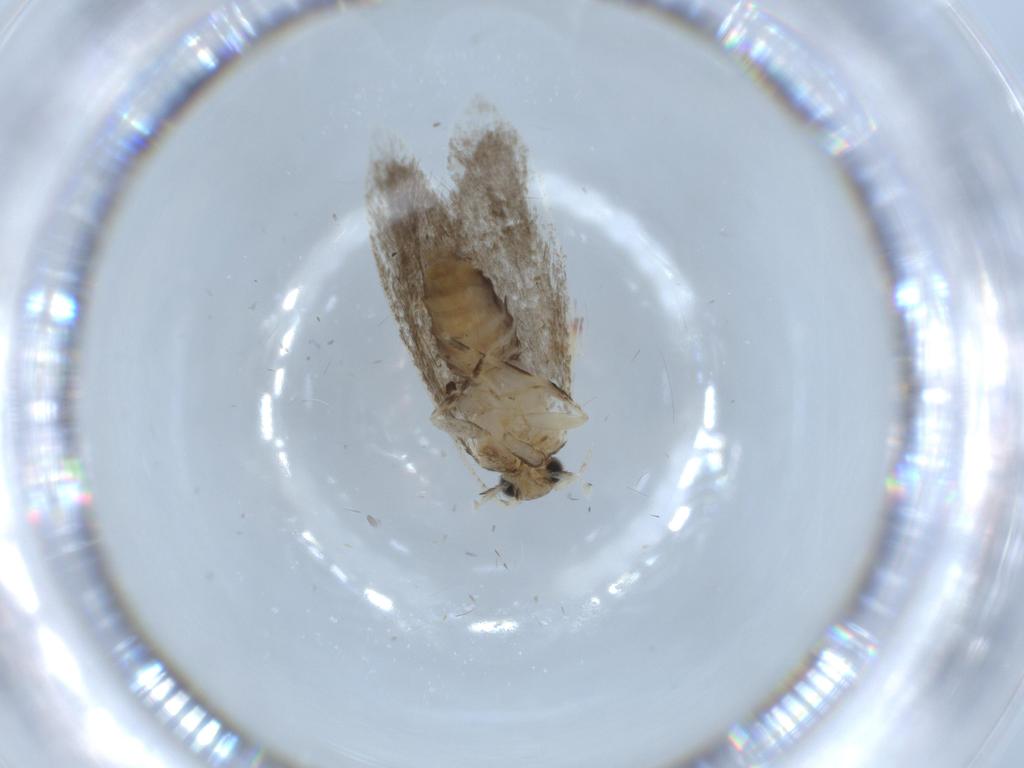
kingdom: Animalia
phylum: Arthropoda
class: Insecta
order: Lepidoptera
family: Tineidae
